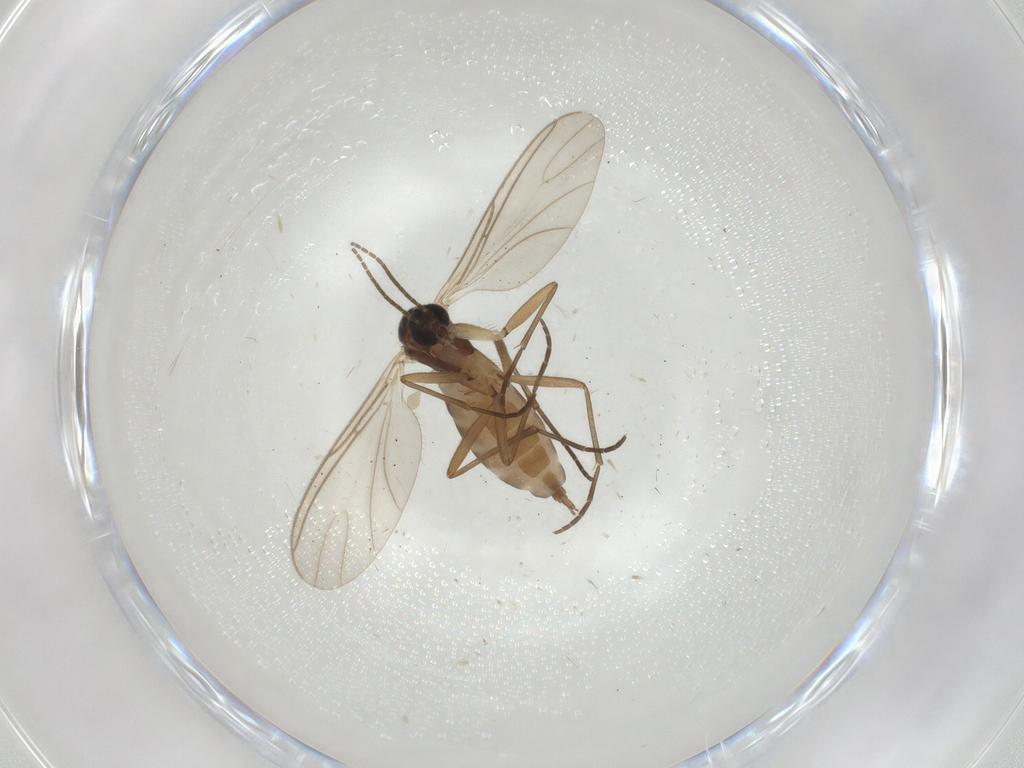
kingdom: Animalia
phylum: Arthropoda
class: Insecta
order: Diptera
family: Sciaridae
